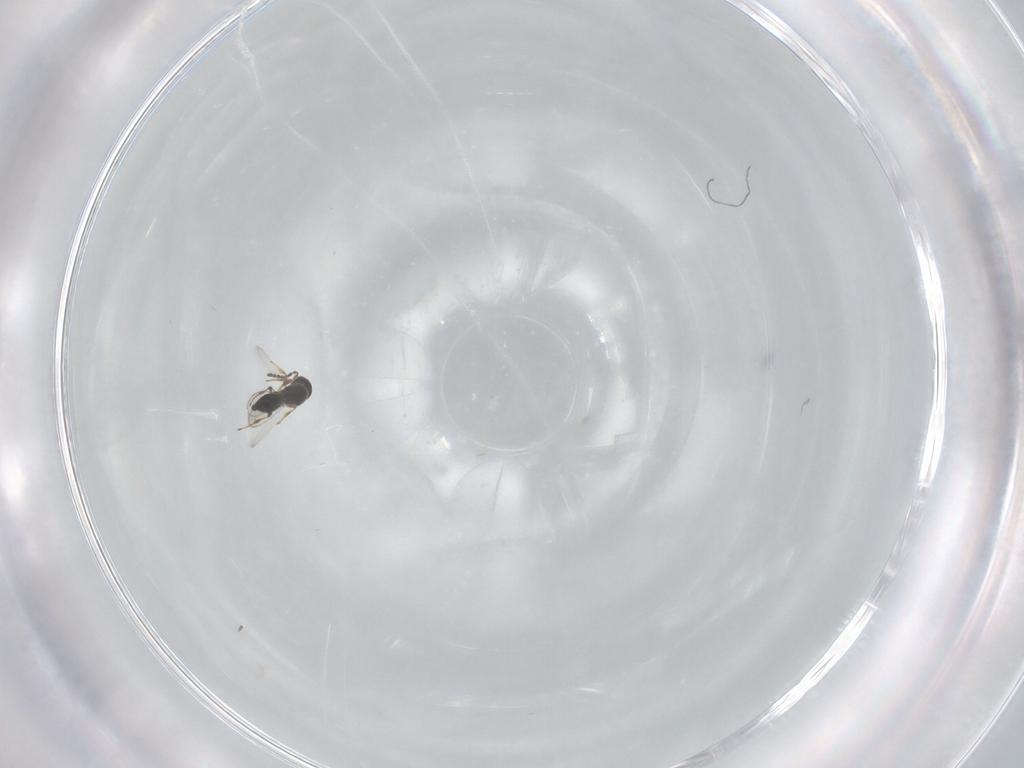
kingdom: Animalia
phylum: Arthropoda
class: Insecta
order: Hymenoptera
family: Platygastridae
